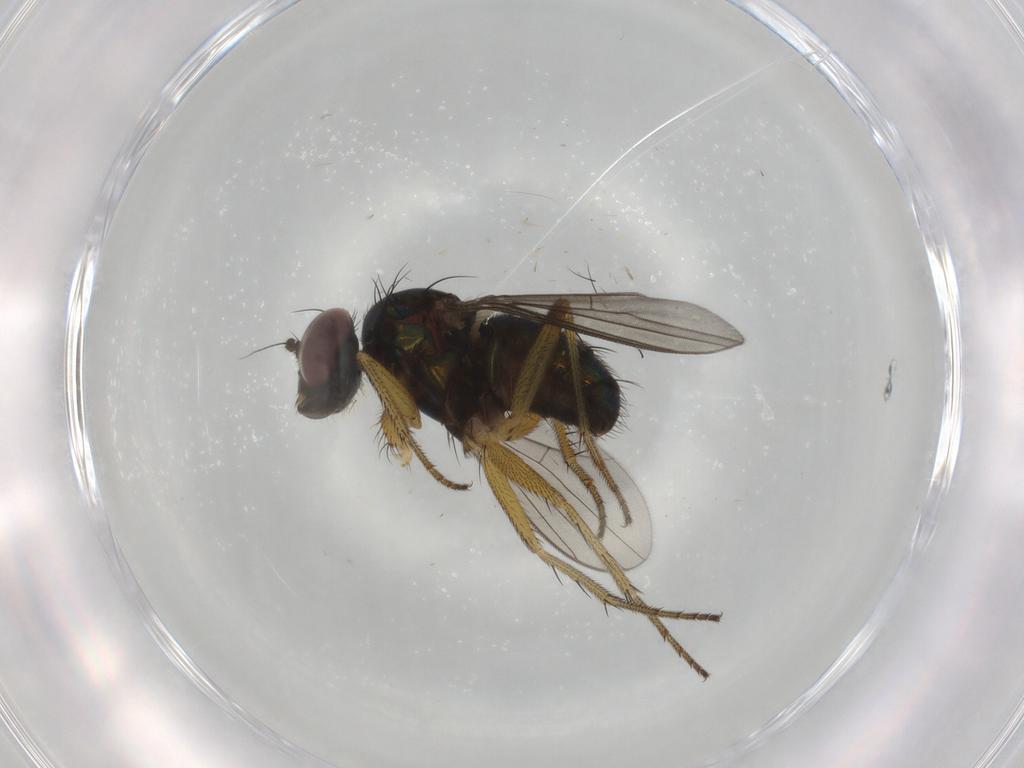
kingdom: Animalia
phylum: Arthropoda
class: Insecta
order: Diptera
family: Dolichopodidae
